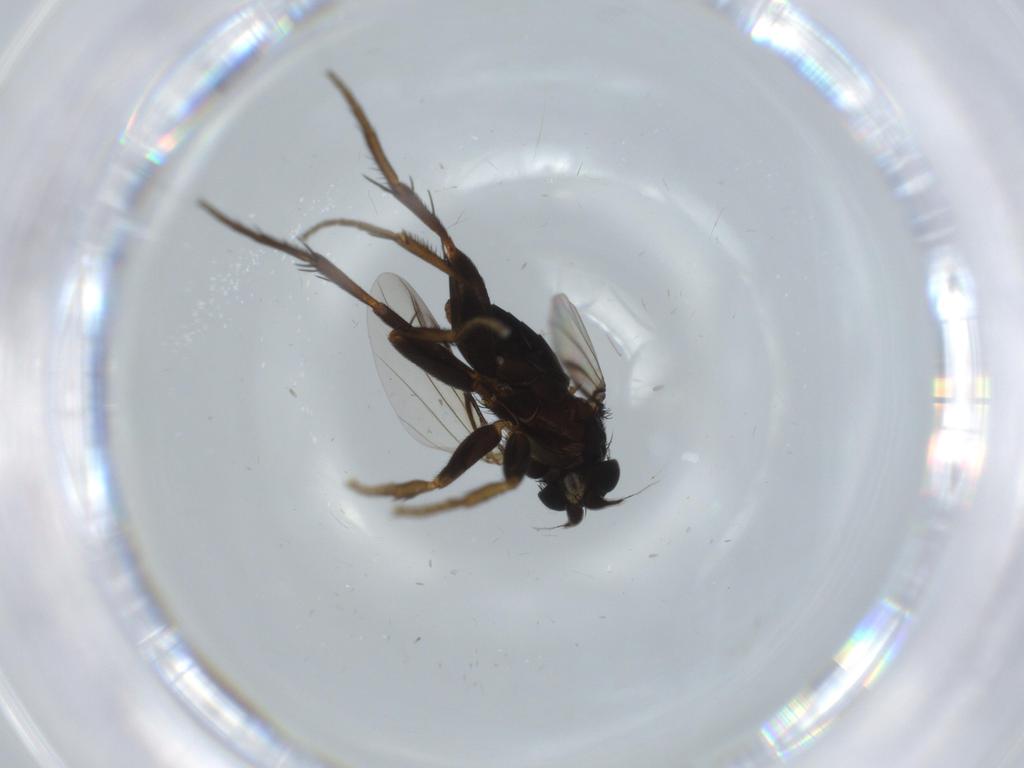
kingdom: Animalia
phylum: Arthropoda
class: Insecta
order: Diptera
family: Phoridae
